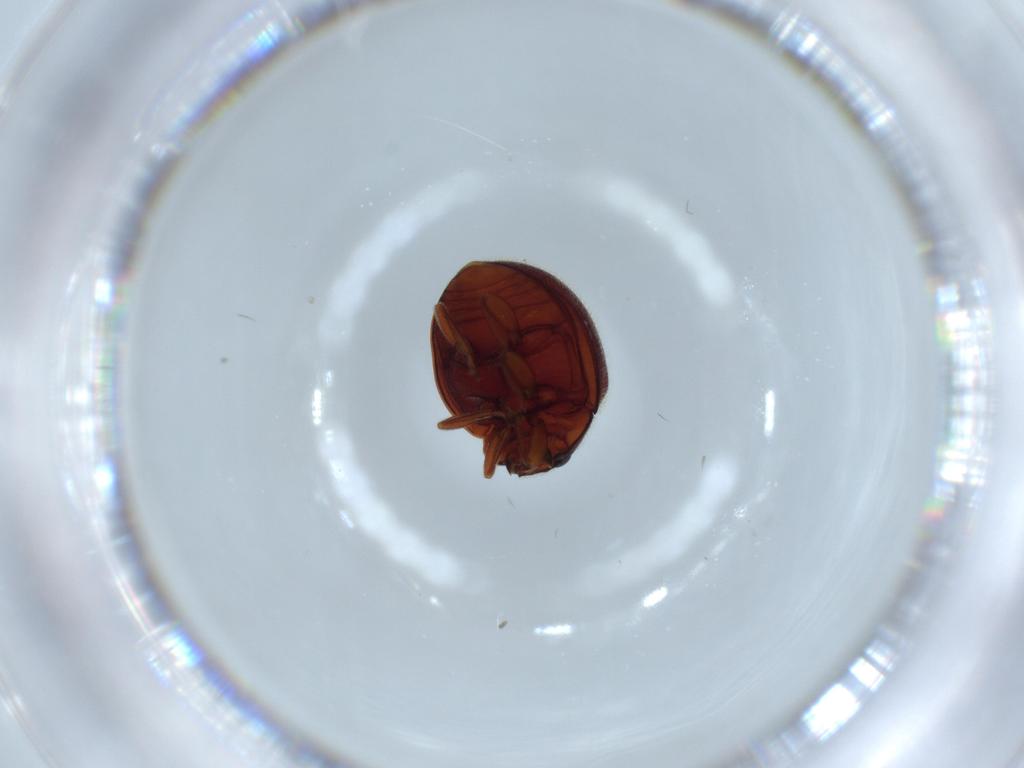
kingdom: Animalia
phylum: Arthropoda
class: Insecta
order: Coleoptera
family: Coccinellidae
